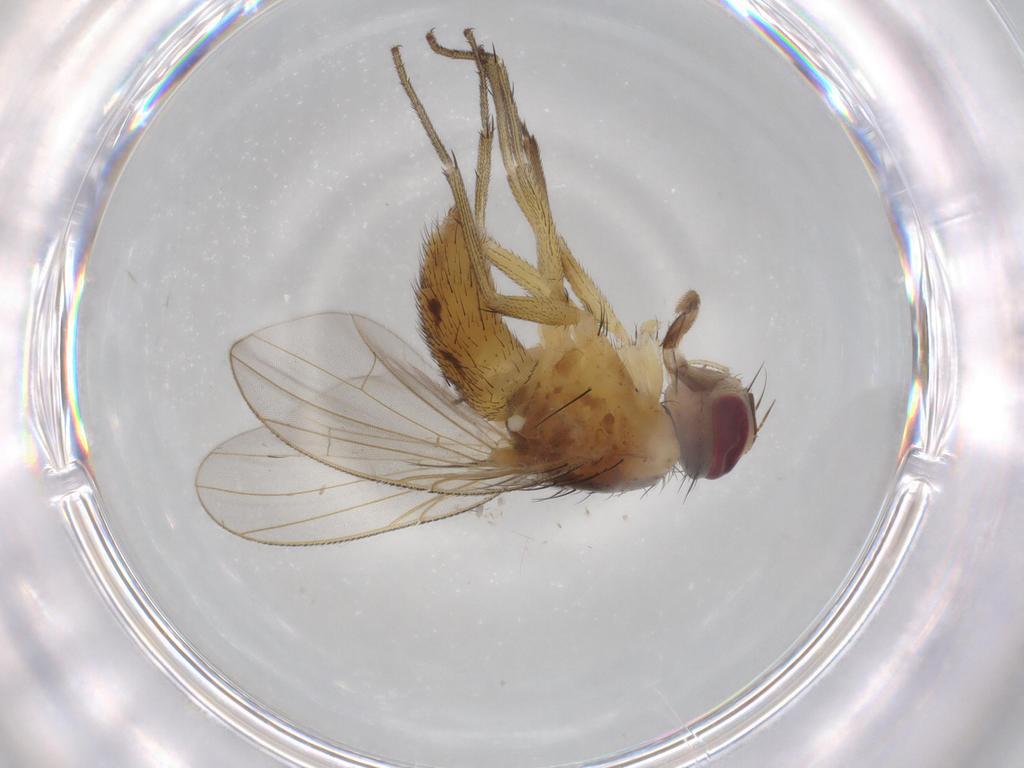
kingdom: Animalia
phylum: Arthropoda
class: Insecta
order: Diptera
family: Muscidae
